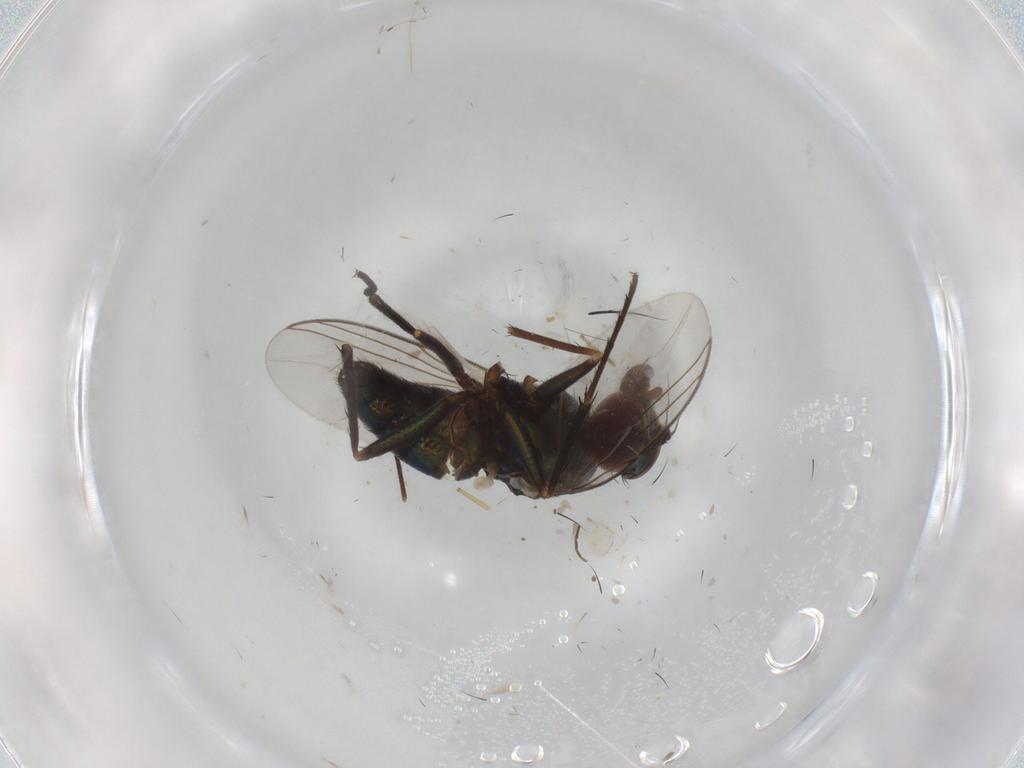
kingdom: Animalia
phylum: Arthropoda
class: Insecta
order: Diptera
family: Dolichopodidae
